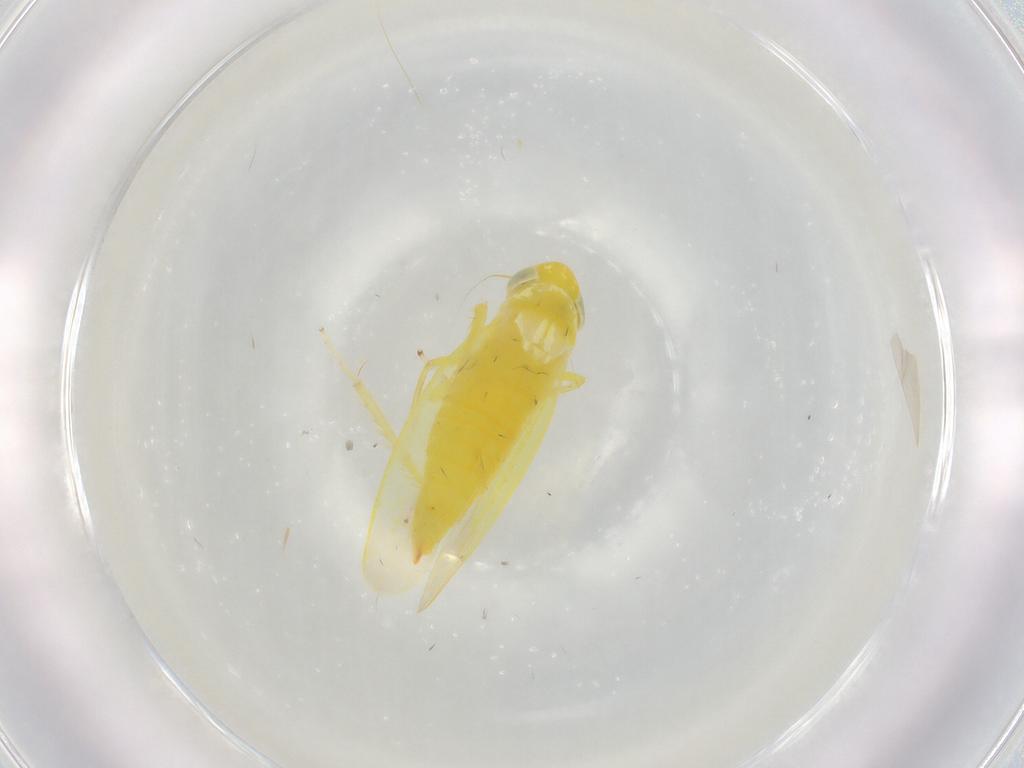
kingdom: Animalia
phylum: Arthropoda
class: Insecta
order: Hemiptera
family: Cicadellidae
